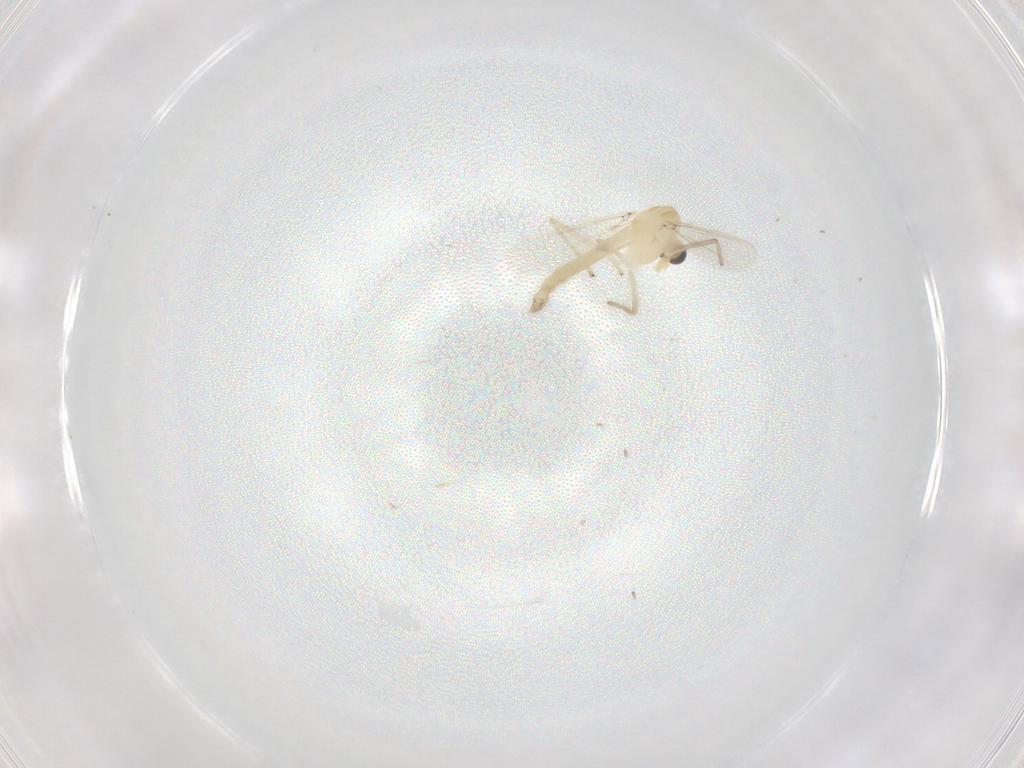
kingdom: Animalia
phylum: Arthropoda
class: Insecta
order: Diptera
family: Chironomidae
